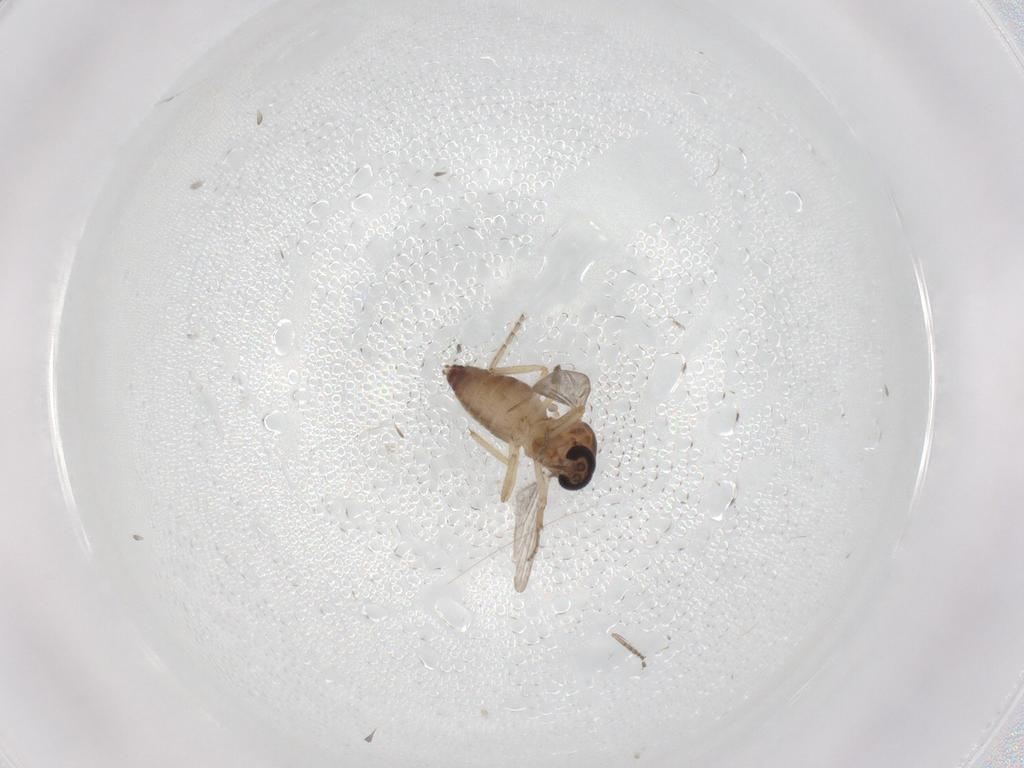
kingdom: Animalia
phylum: Arthropoda
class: Insecta
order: Diptera
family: Ceratopogonidae
